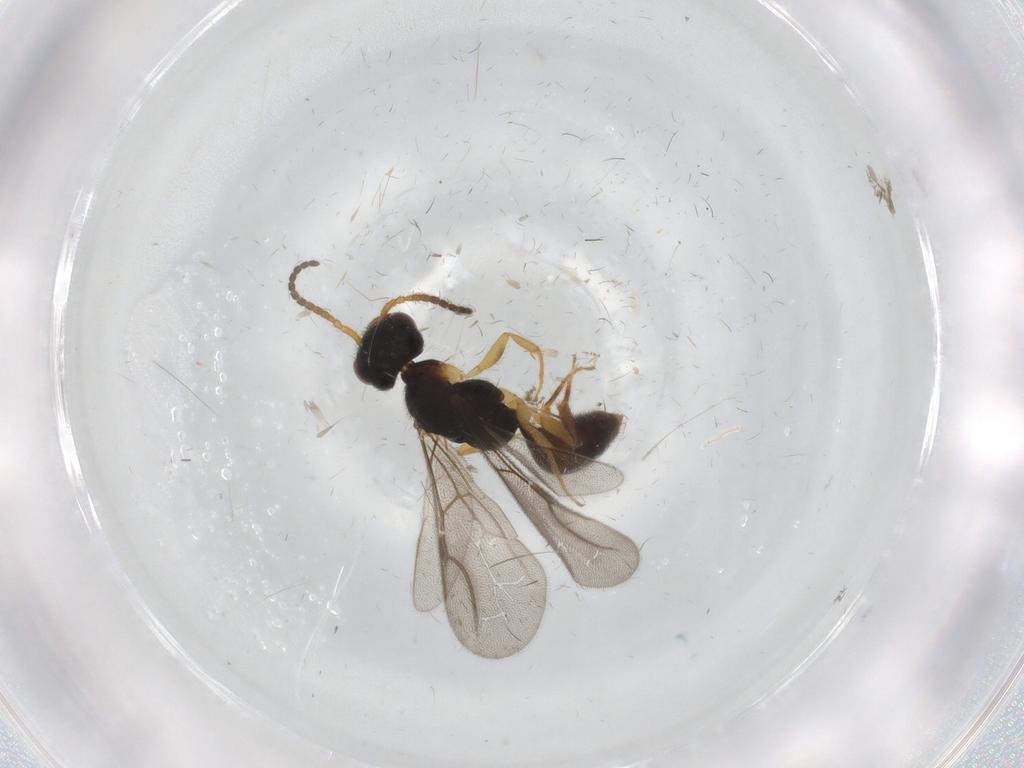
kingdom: Animalia
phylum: Arthropoda
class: Insecta
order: Hymenoptera
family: Bethylidae
